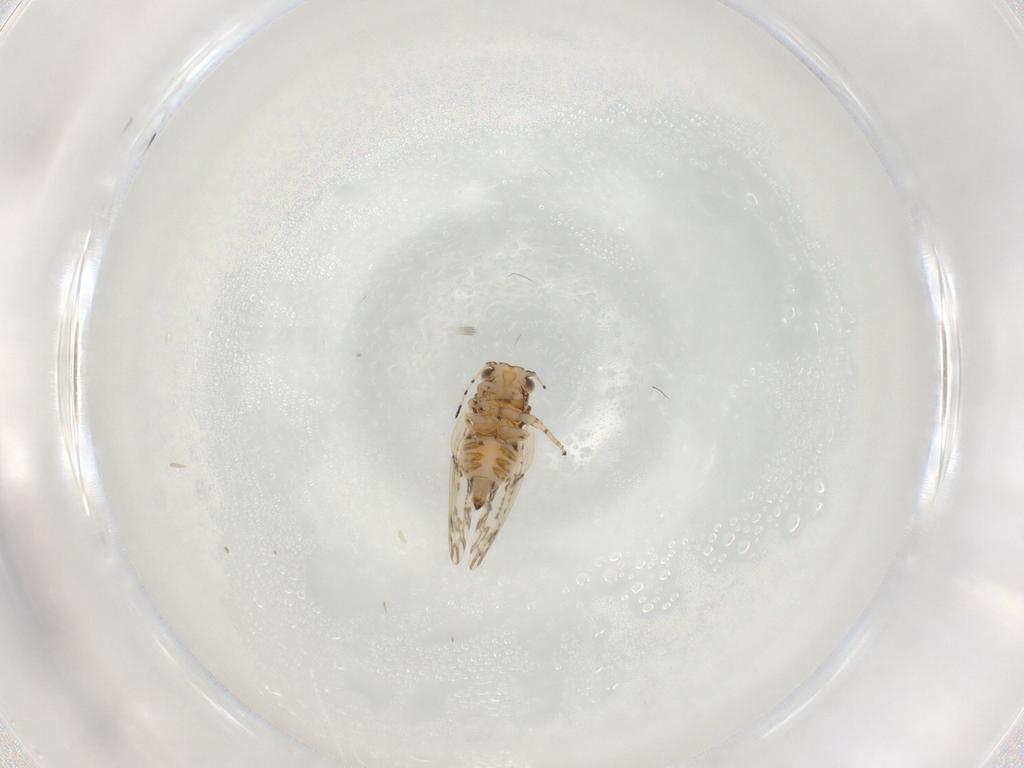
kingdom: Animalia
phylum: Arthropoda
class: Insecta
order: Hemiptera
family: Cicadellidae
